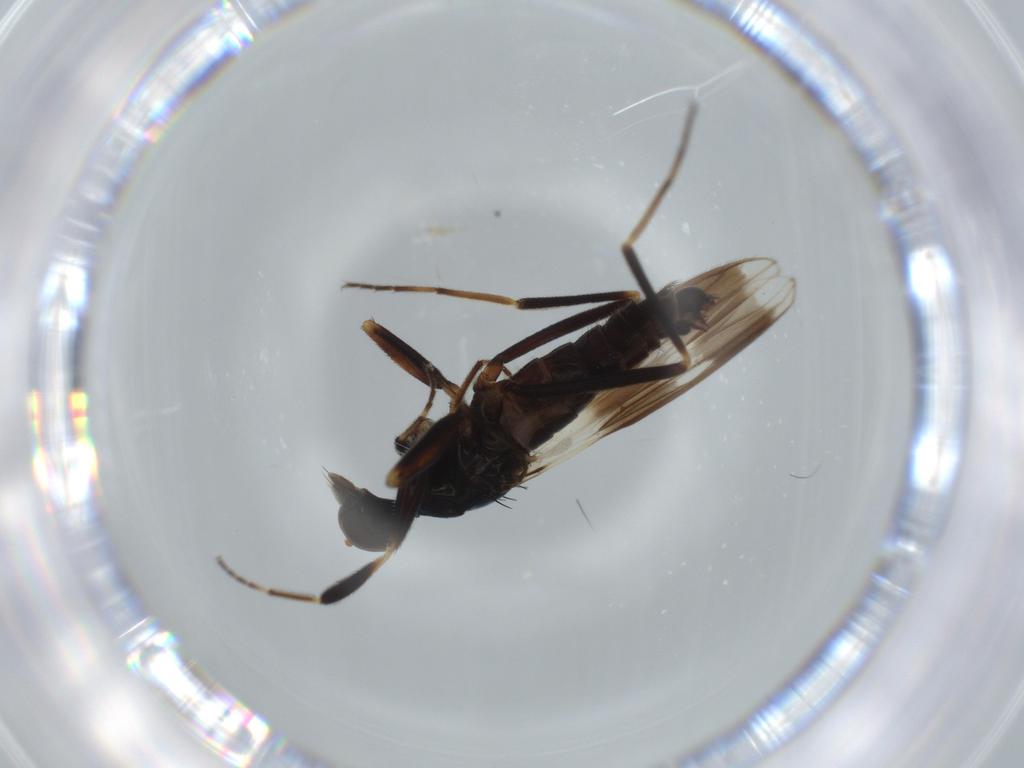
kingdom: Animalia
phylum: Arthropoda
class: Insecta
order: Diptera
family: Hybotidae
